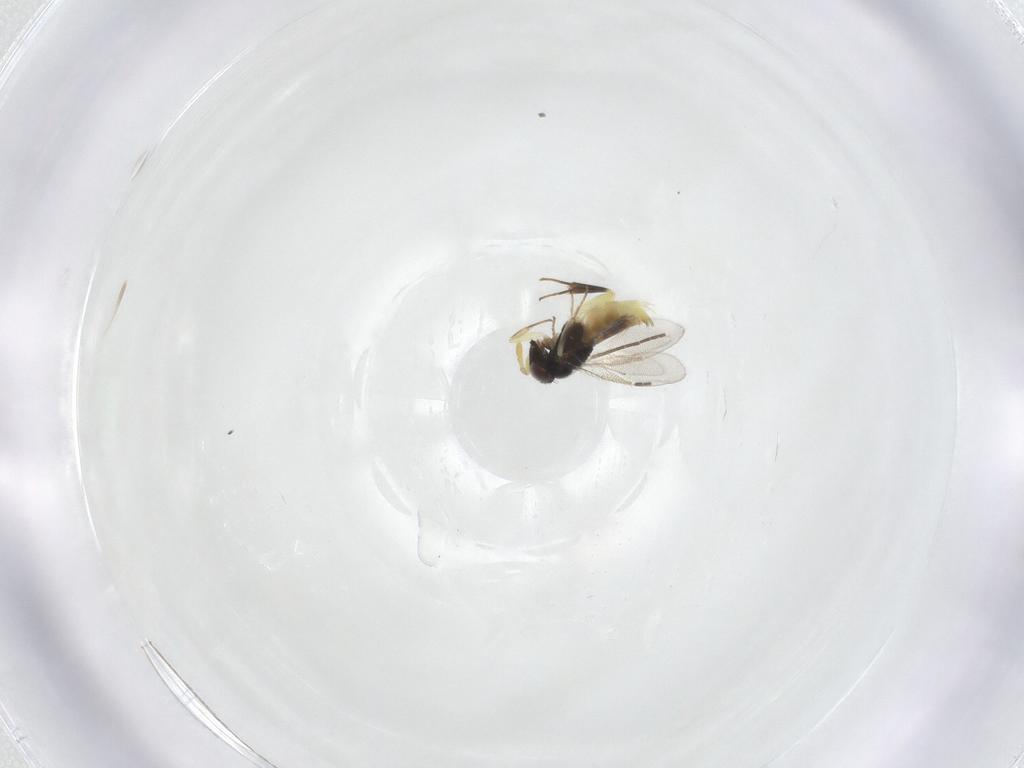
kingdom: Animalia
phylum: Arthropoda
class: Insecta
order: Hymenoptera
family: Aphelinidae
